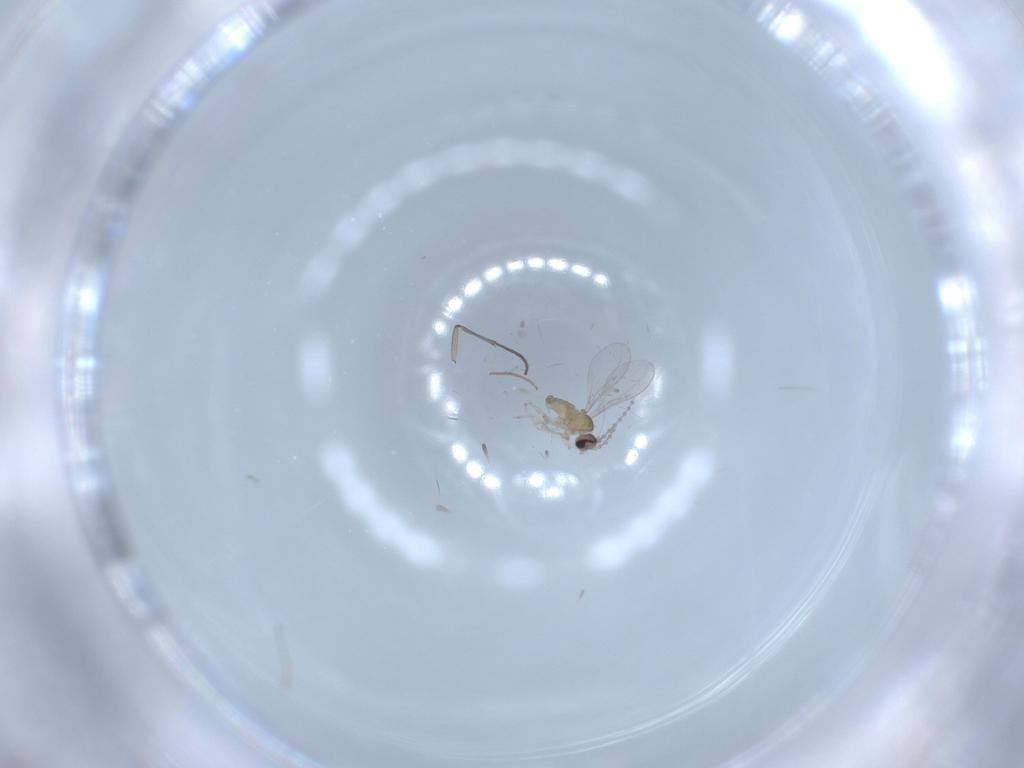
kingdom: Animalia
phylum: Arthropoda
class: Insecta
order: Diptera
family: Cecidomyiidae
